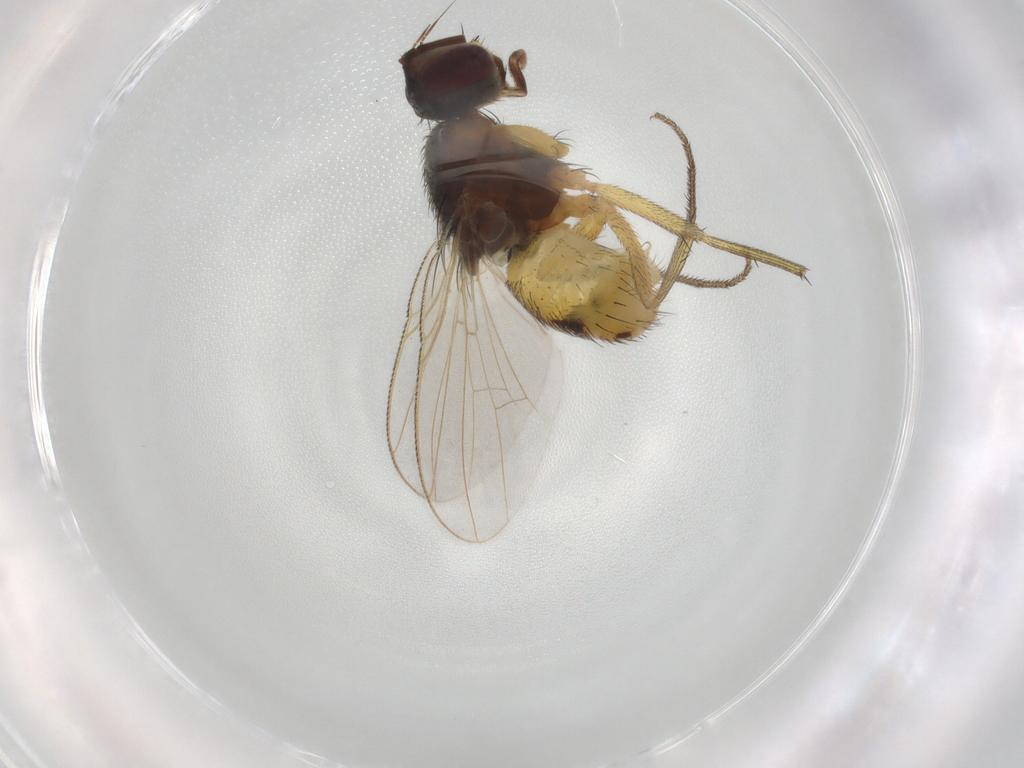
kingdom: Animalia
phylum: Arthropoda
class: Insecta
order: Diptera
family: Muscidae
